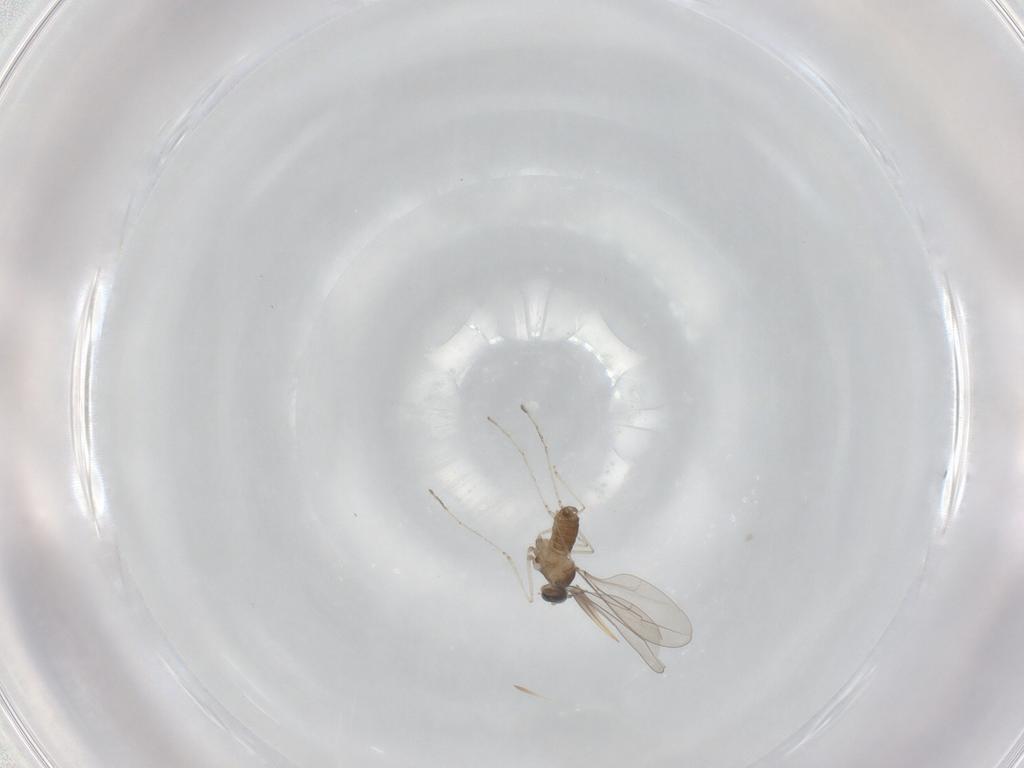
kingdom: Animalia
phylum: Arthropoda
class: Insecta
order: Diptera
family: Cecidomyiidae
